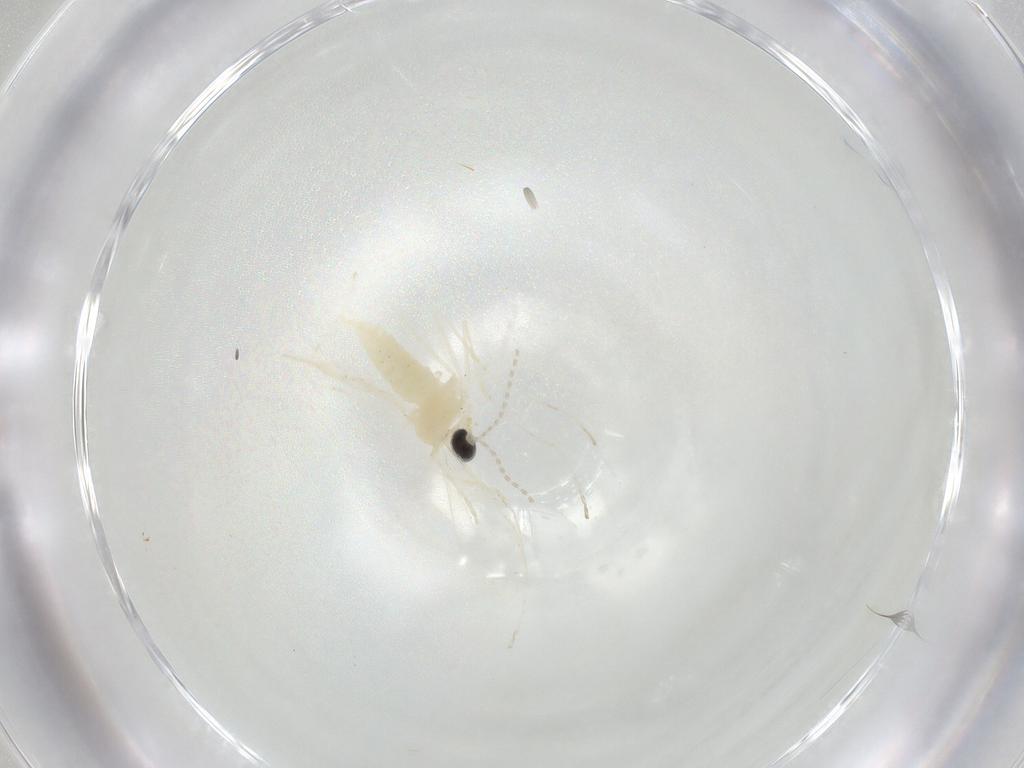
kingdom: Animalia
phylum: Arthropoda
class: Insecta
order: Diptera
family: Cecidomyiidae
